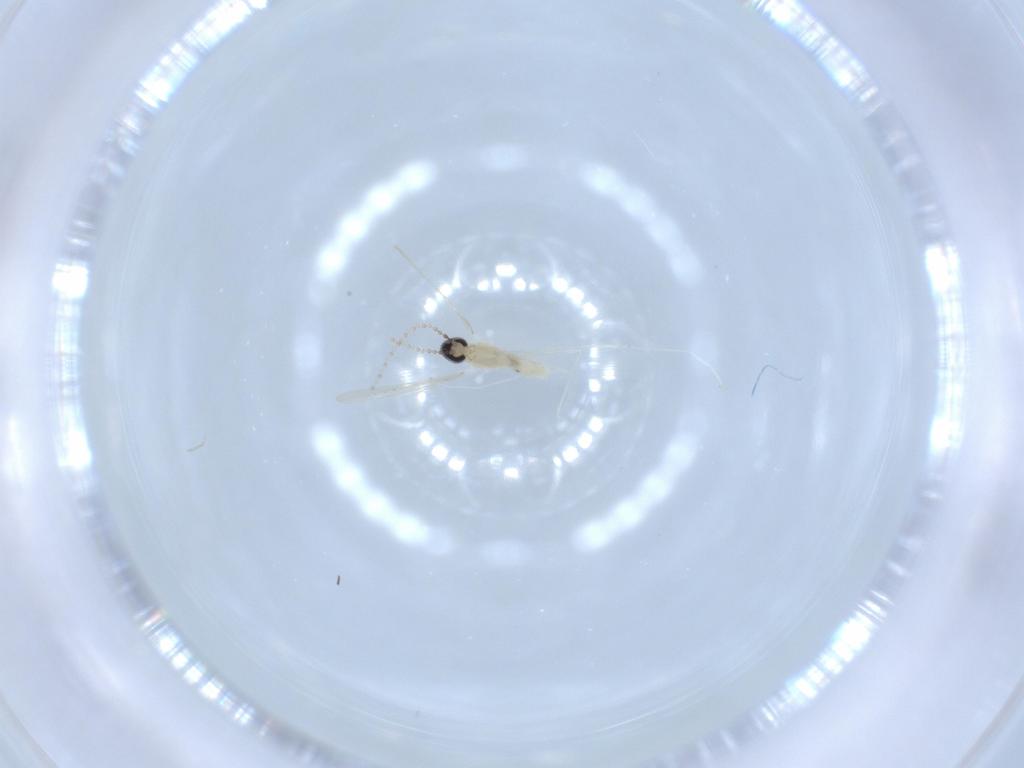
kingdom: Animalia
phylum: Arthropoda
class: Insecta
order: Diptera
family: Cecidomyiidae
